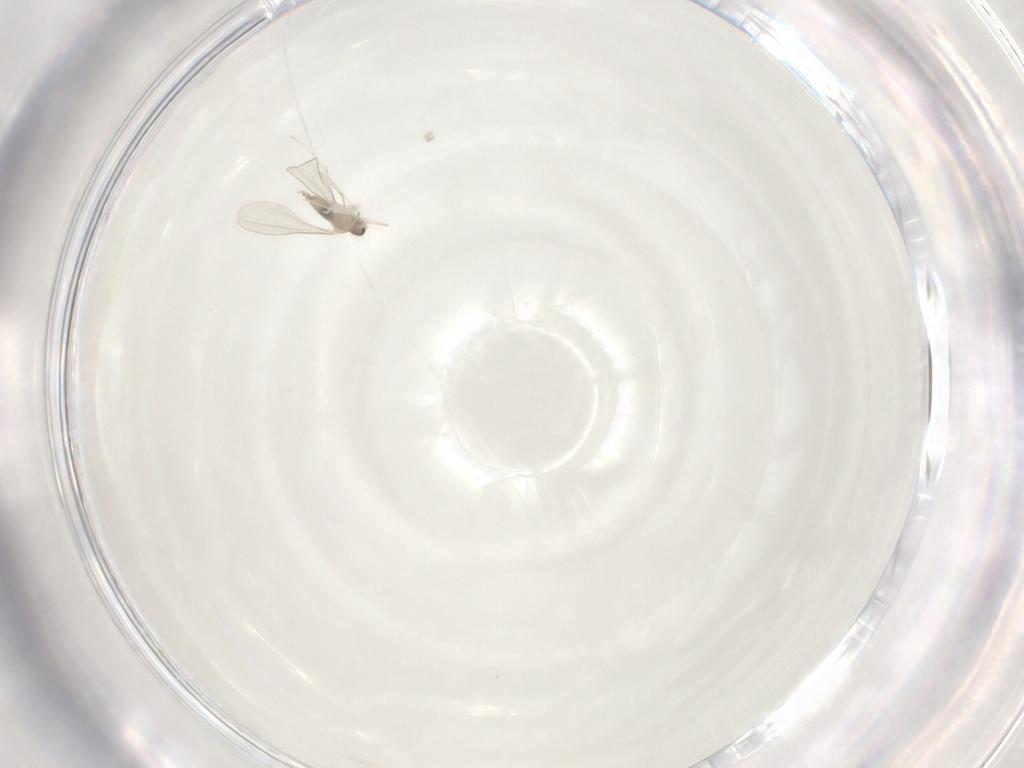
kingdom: Animalia
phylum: Arthropoda
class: Insecta
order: Diptera
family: Cecidomyiidae
